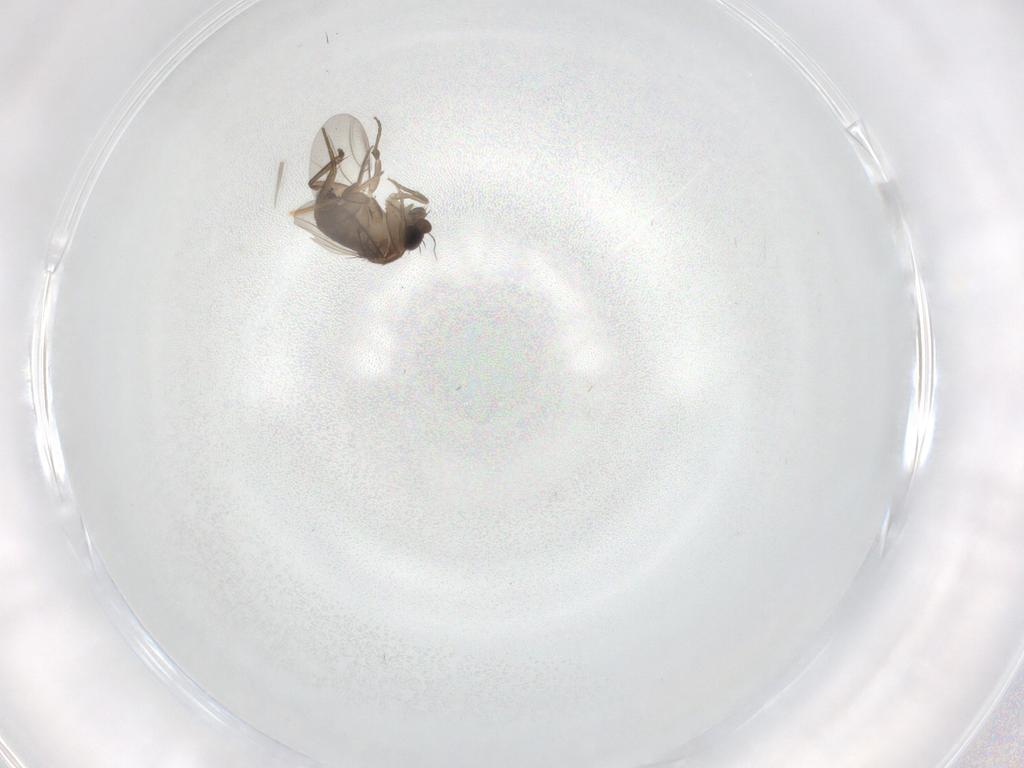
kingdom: Animalia
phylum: Arthropoda
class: Insecta
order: Diptera
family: Phoridae
